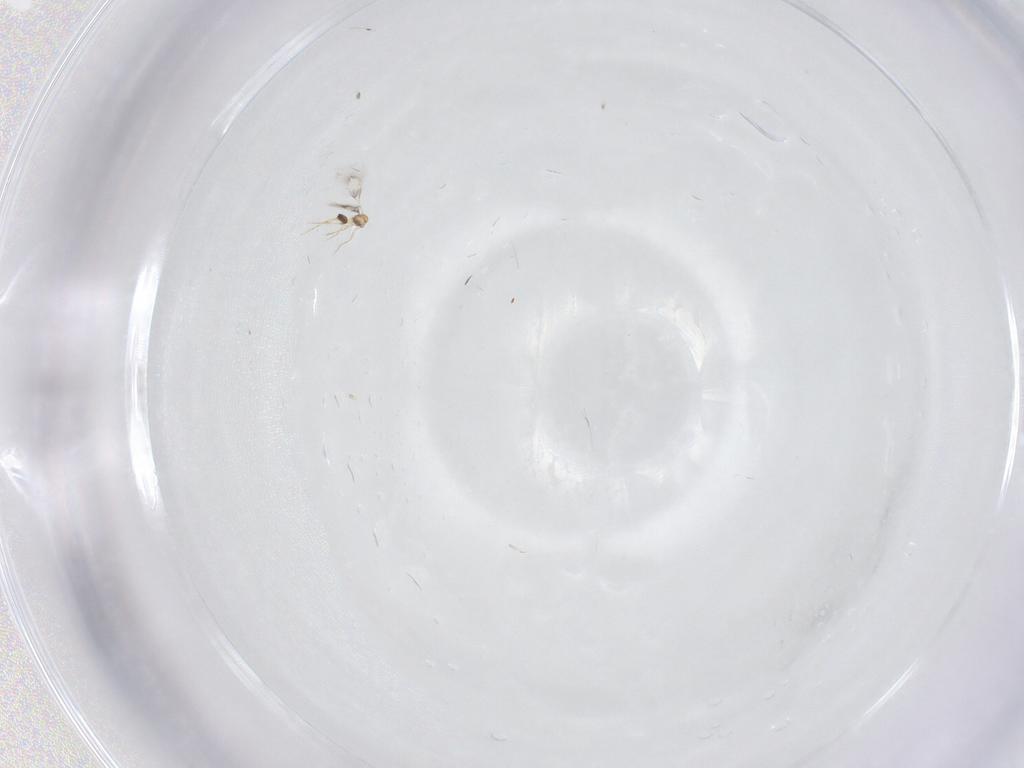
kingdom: Animalia
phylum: Arthropoda
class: Insecta
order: Hymenoptera
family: Mymarommatidae
